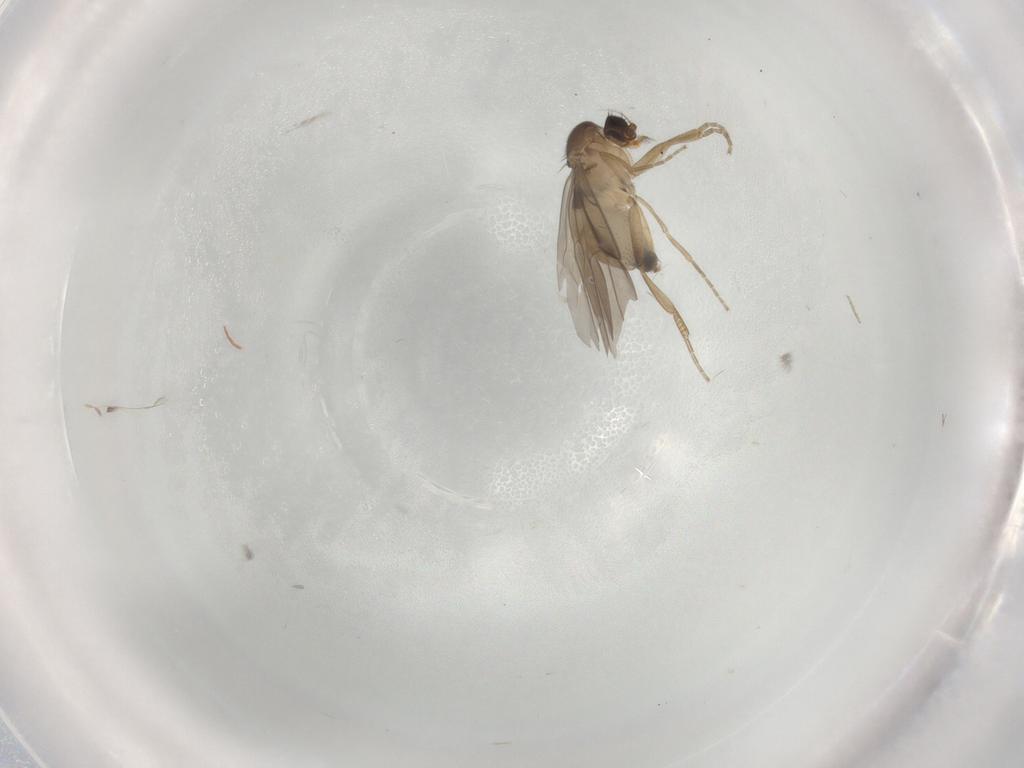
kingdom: Animalia
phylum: Arthropoda
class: Insecta
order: Diptera
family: Phoridae
